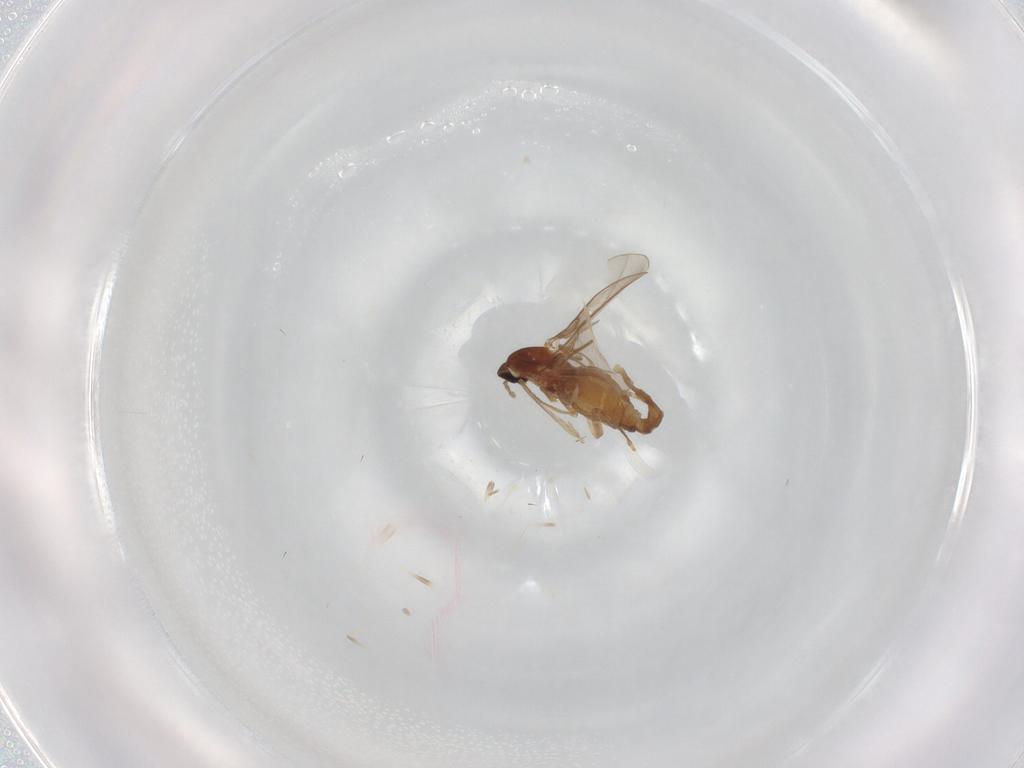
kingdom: Animalia
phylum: Arthropoda
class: Insecta
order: Diptera
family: Cecidomyiidae
